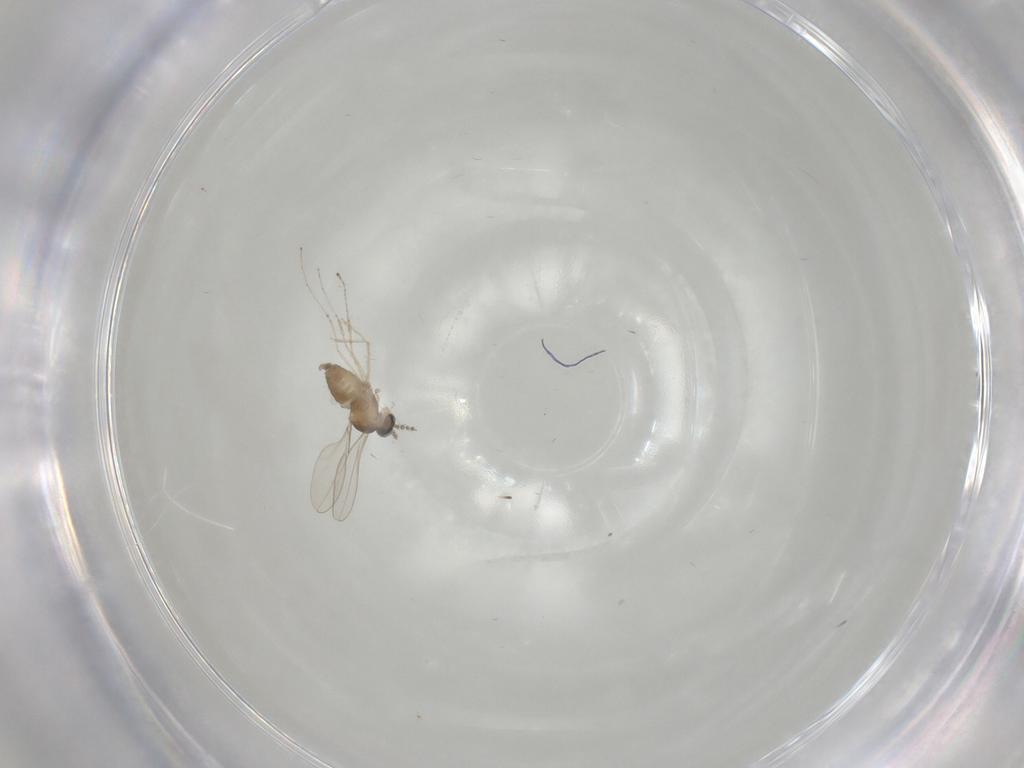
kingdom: Animalia
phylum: Arthropoda
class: Insecta
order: Diptera
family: Cecidomyiidae
